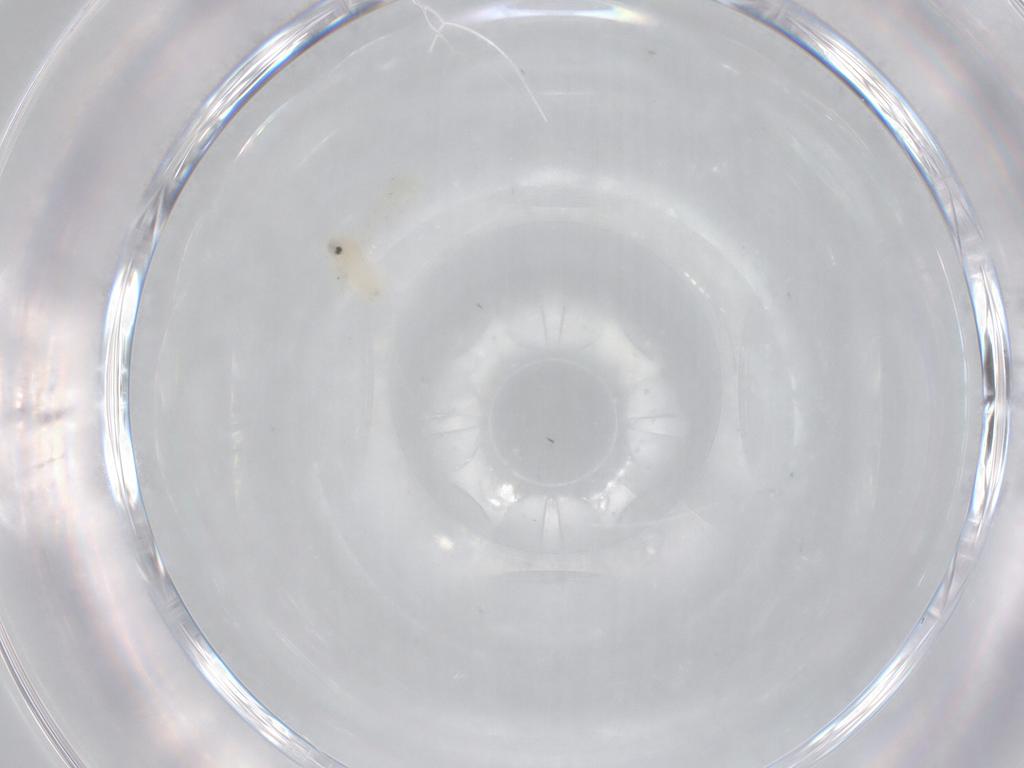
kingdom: Animalia
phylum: Arthropoda
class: Insecta
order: Hemiptera
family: Aleyrodidae
